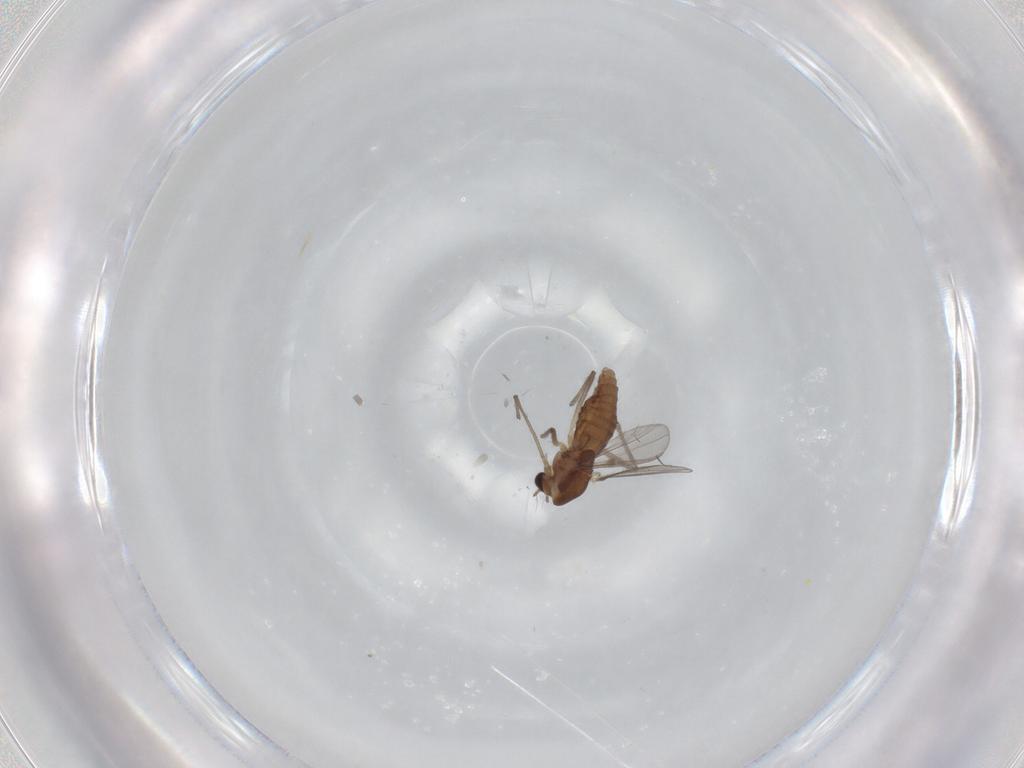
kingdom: Animalia
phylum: Arthropoda
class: Insecta
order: Diptera
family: Chironomidae
